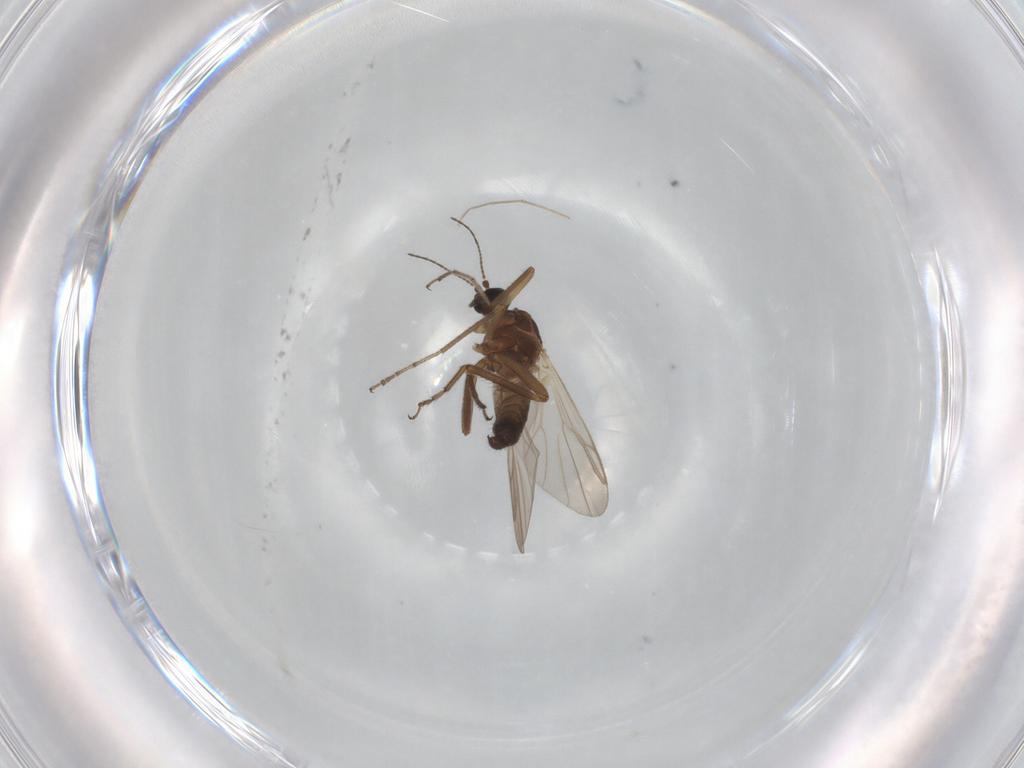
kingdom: Animalia
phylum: Arthropoda
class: Insecta
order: Diptera
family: Ceratopogonidae
